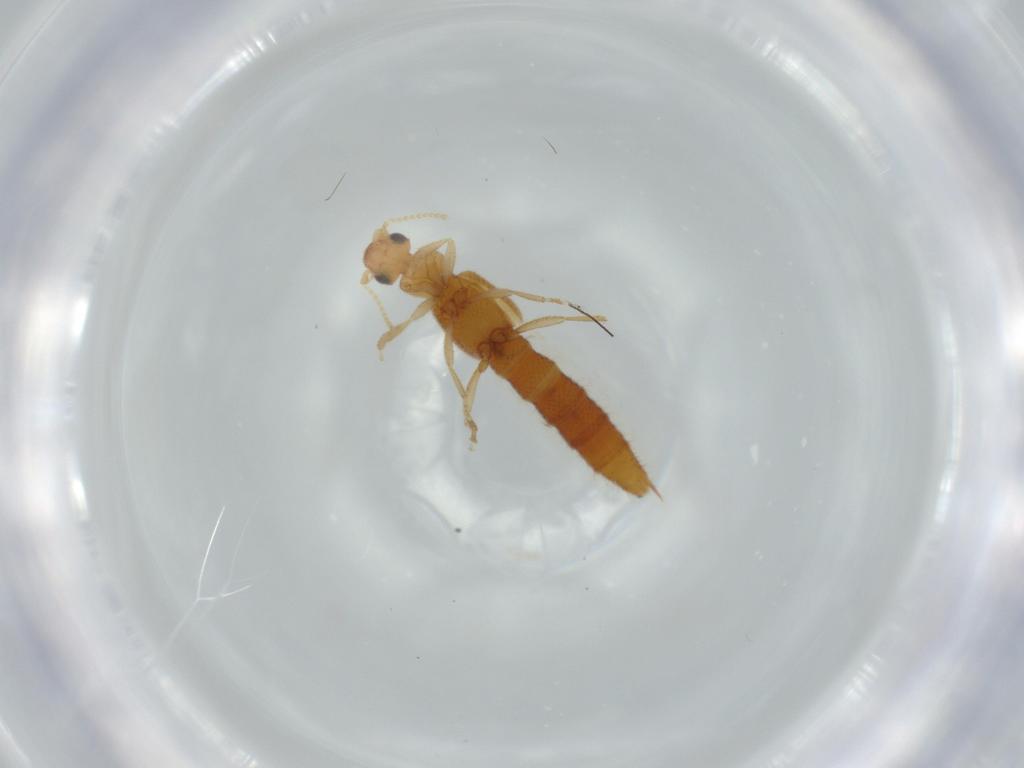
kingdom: Animalia
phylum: Arthropoda
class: Insecta
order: Coleoptera
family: Staphylinidae
